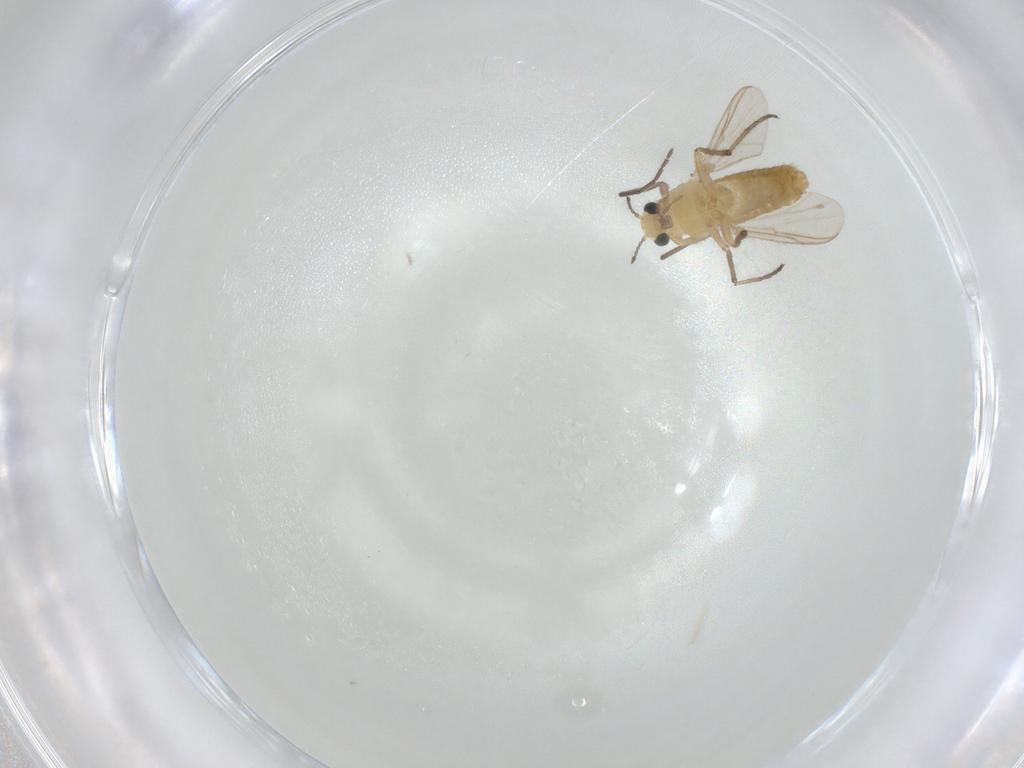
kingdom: Animalia
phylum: Arthropoda
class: Insecta
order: Diptera
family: Chironomidae
